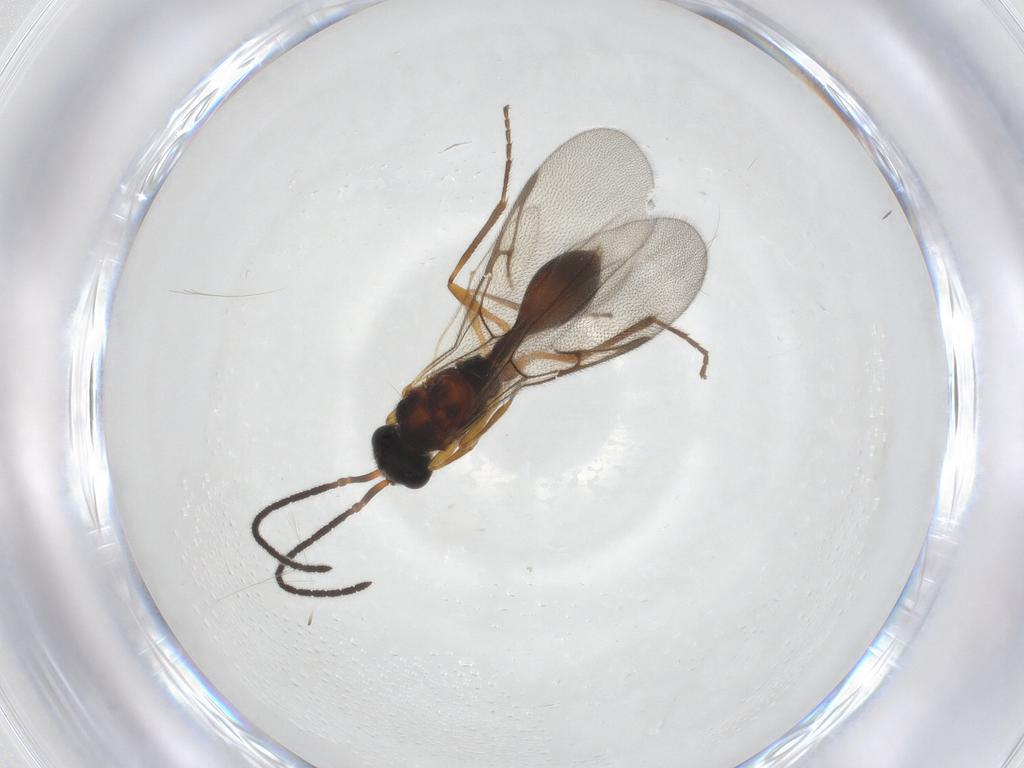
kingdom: Animalia
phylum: Arthropoda
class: Insecta
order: Hymenoptera
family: Diapriidae
